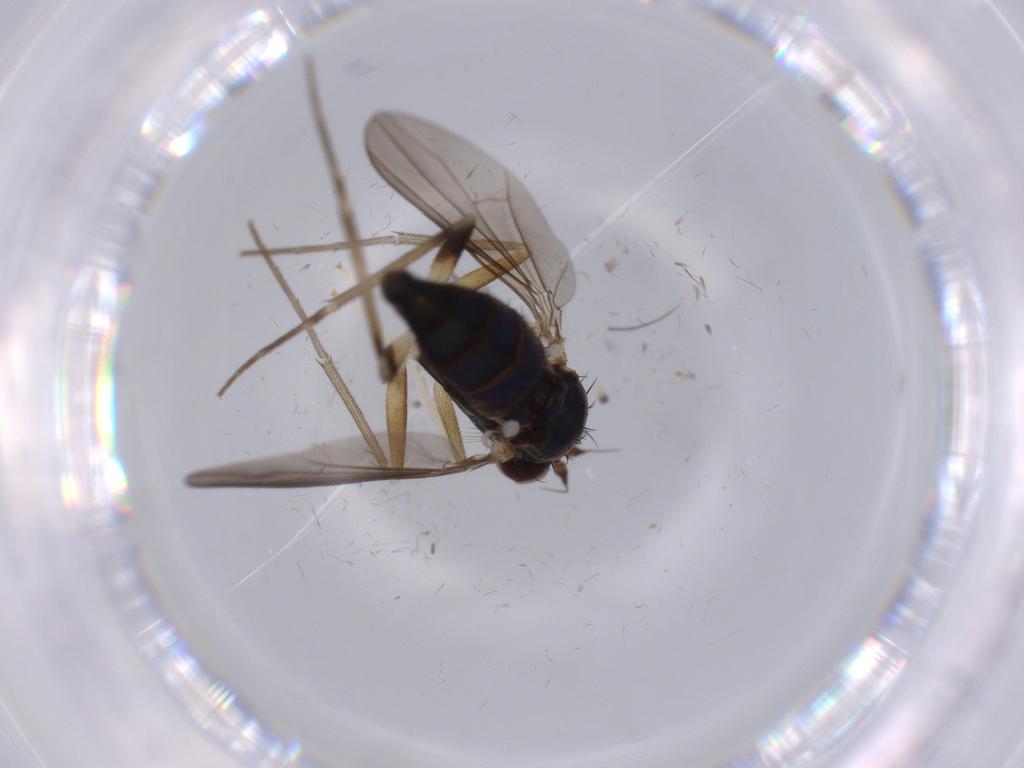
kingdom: Animalia
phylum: Arthropoda
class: Insecta
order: Diptera
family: Dolichopodidae
